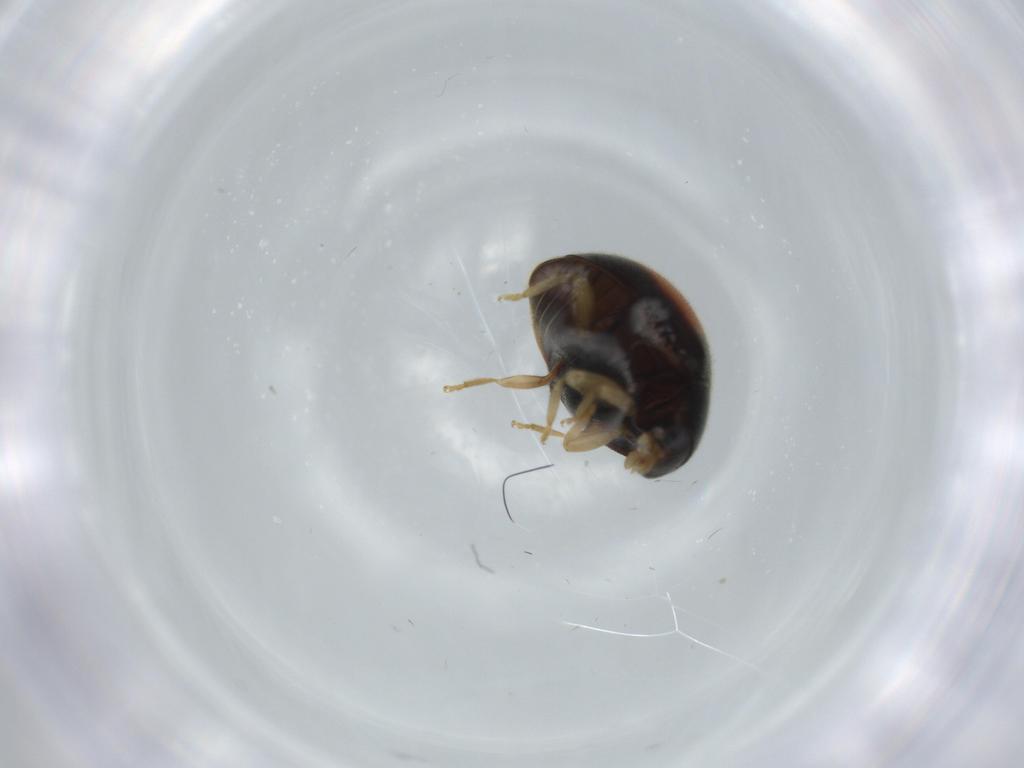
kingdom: Animalia
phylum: Arthropoda
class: Insecta
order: Coleoptera
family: Coccinellidae
